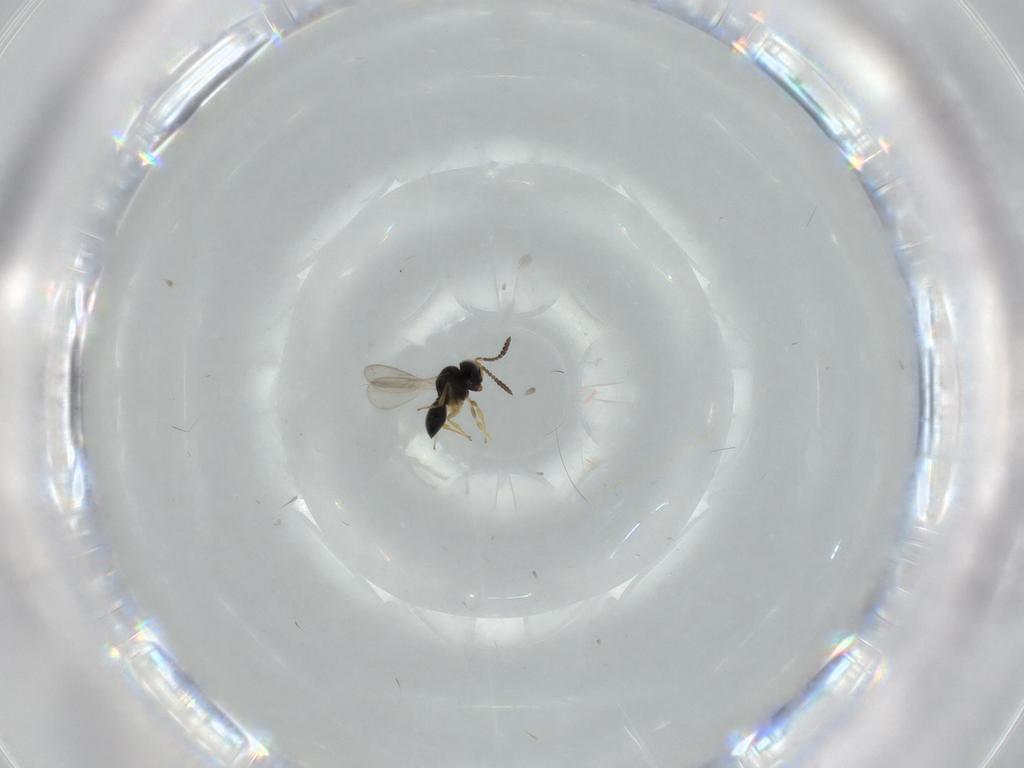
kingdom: Animalia
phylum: Arthropoda
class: Insecta
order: Hymenoptera
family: Scelionidae
